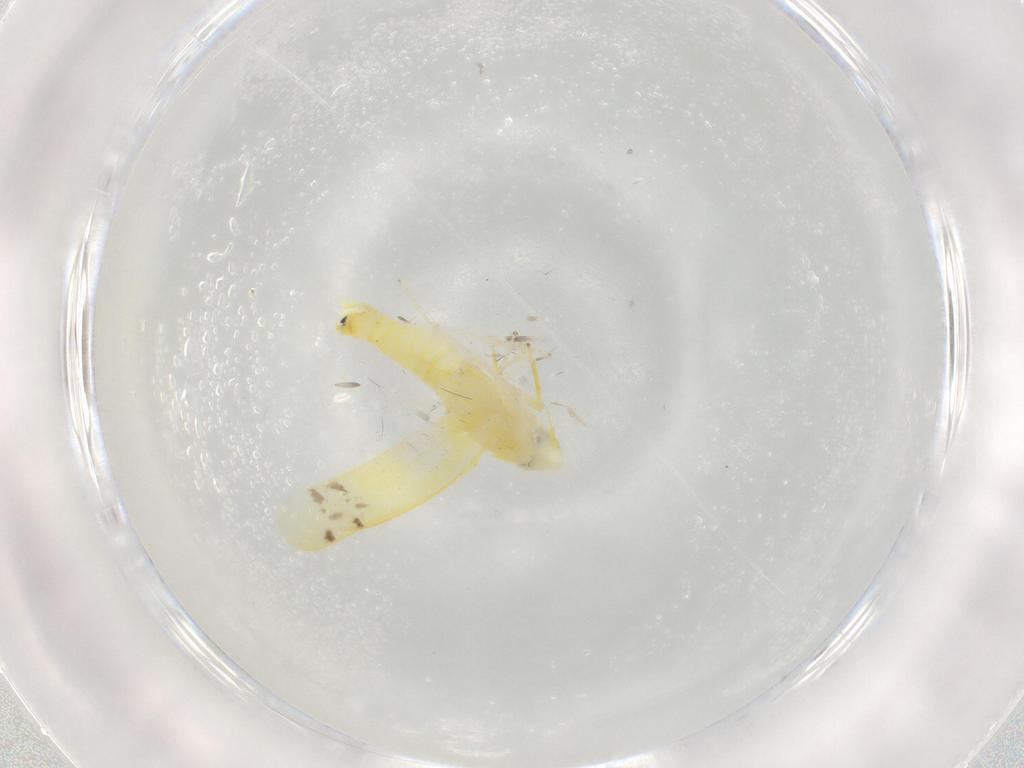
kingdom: Animalia
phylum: Arthropoda
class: Insecta
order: Hemiptera
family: Cicadellidae
